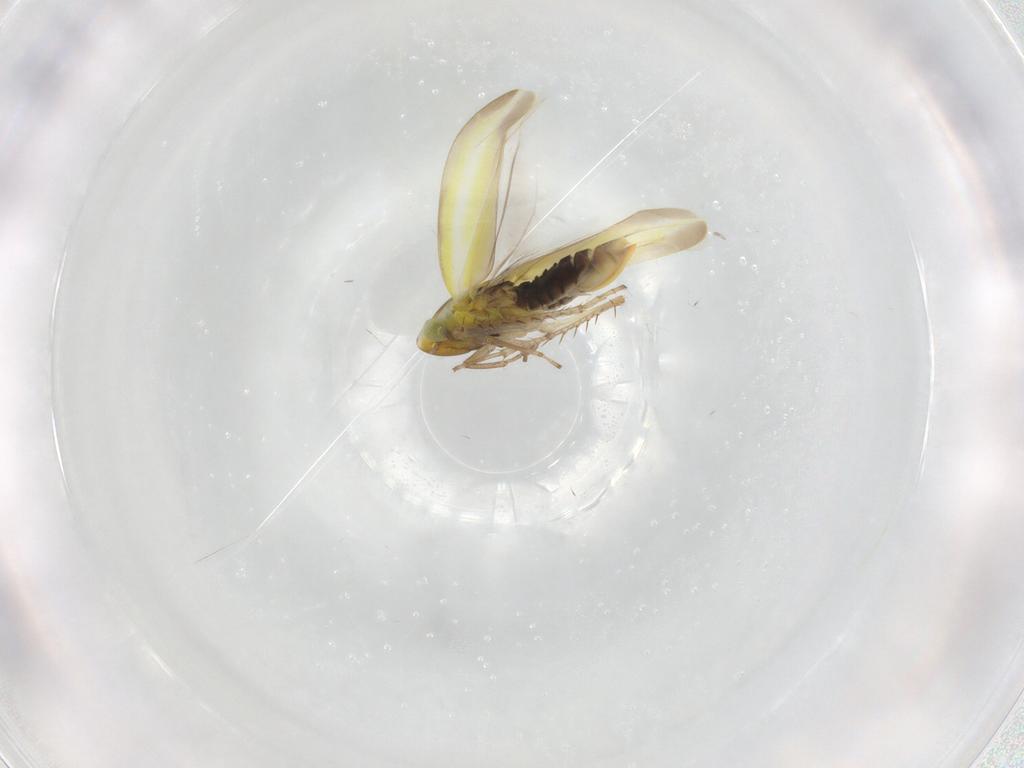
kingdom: Animalia
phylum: Arthropoda
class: Insecta
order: Hemiptera
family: Cicadellidae
